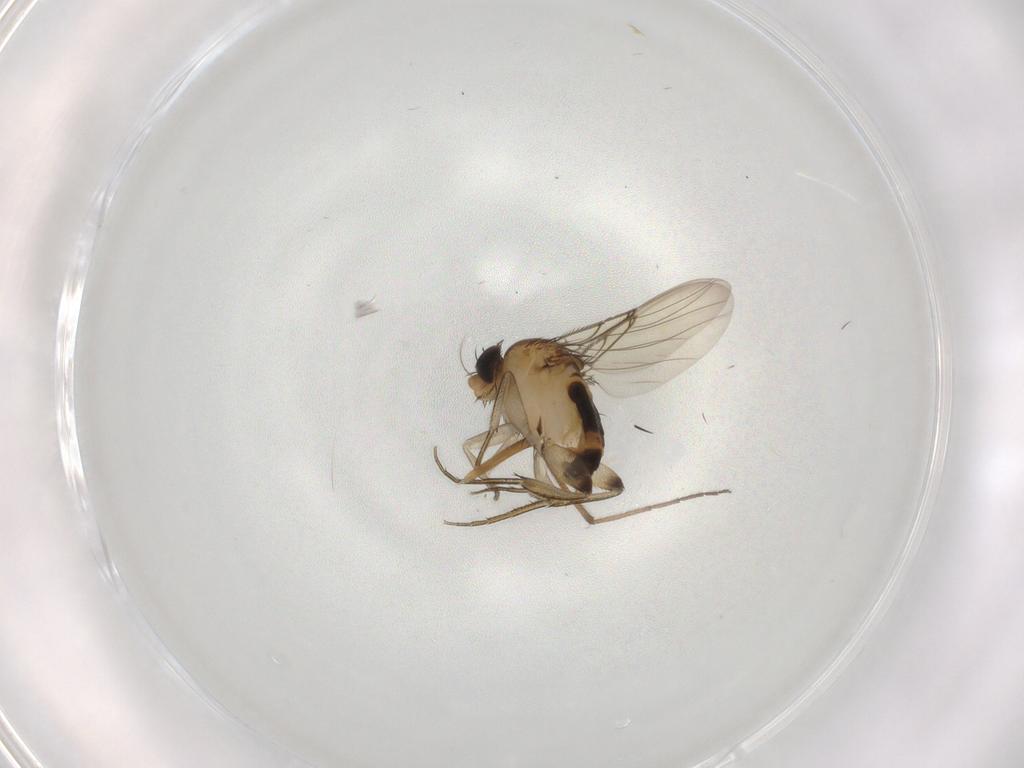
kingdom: Animalia
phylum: Arthropoda
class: Insecta
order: Diptera
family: Phoridae
